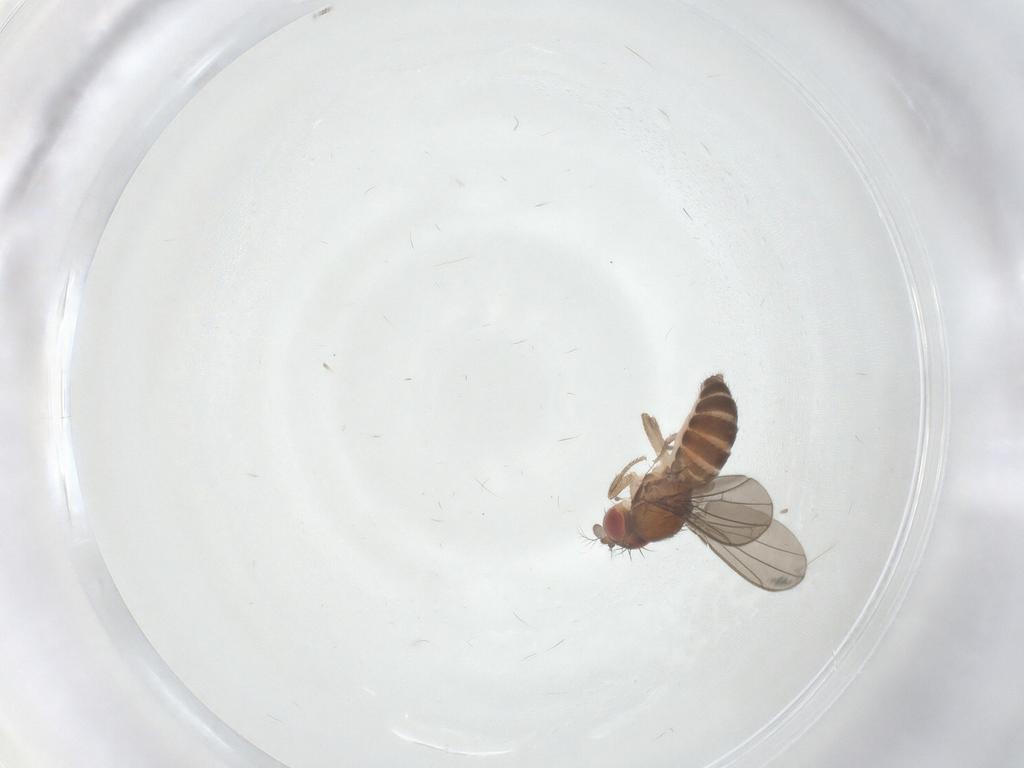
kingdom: Animalia
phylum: Arthropoda
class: Insecta
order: Diptera
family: Drosophilidae
